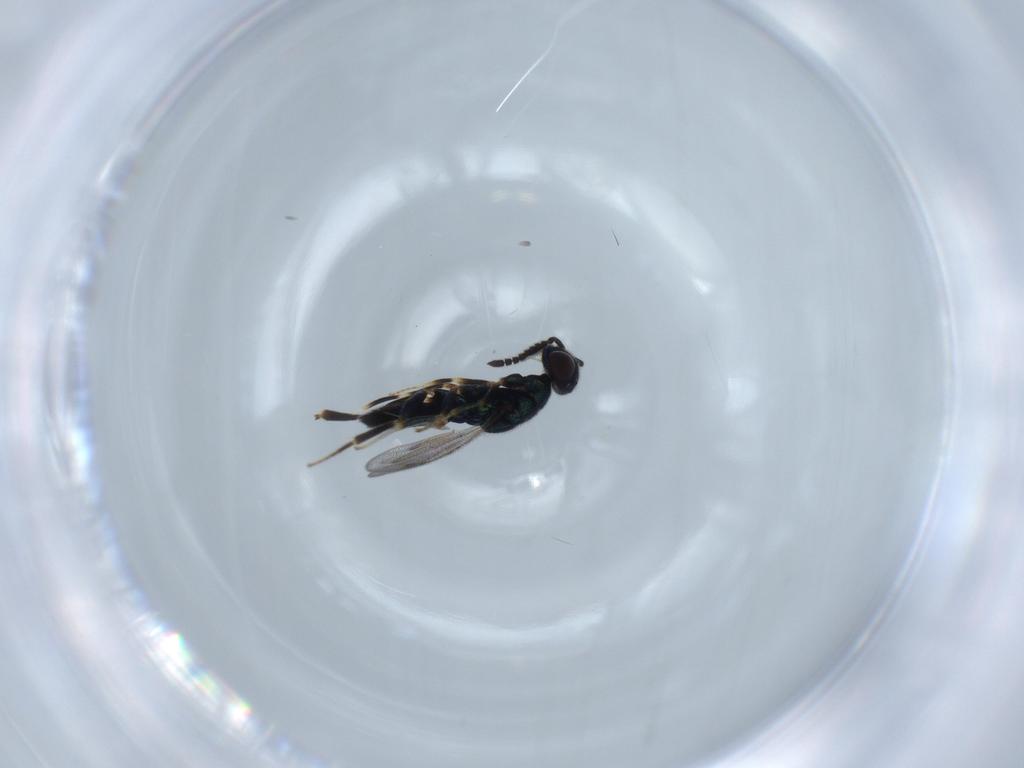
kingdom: Animalia
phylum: Arthropoda
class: Insecta
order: Hymenoptera
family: Cleonyminae
